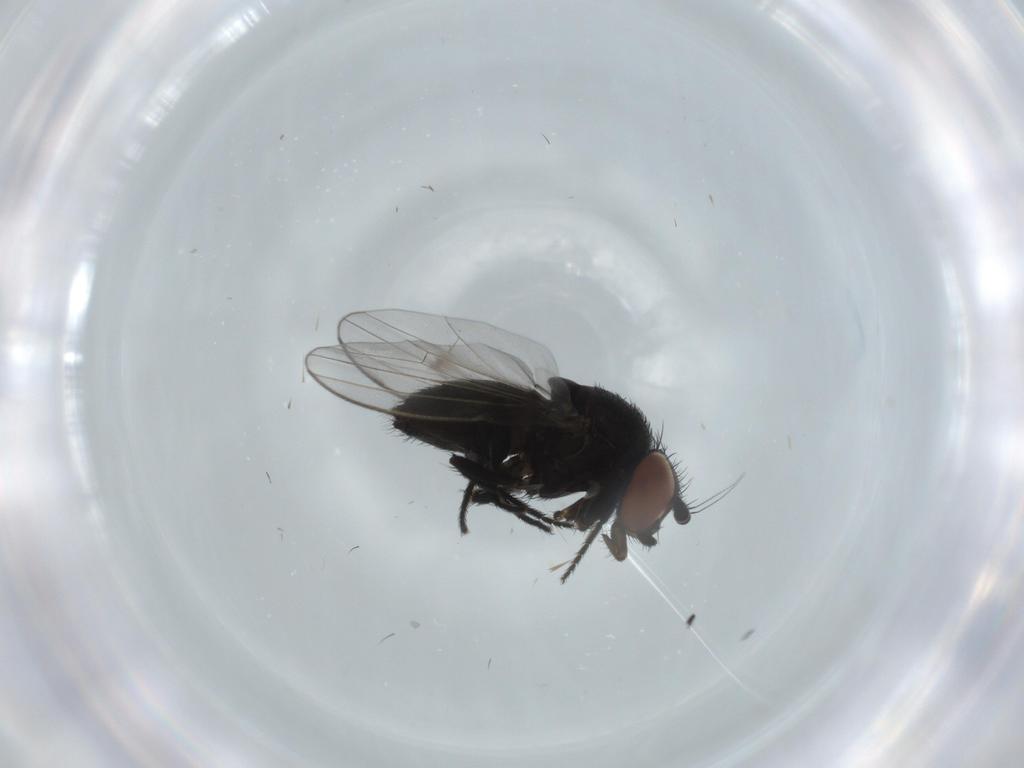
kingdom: Animalia
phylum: Arthropoda
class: Insecta
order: Diptera
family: Milichiidae
